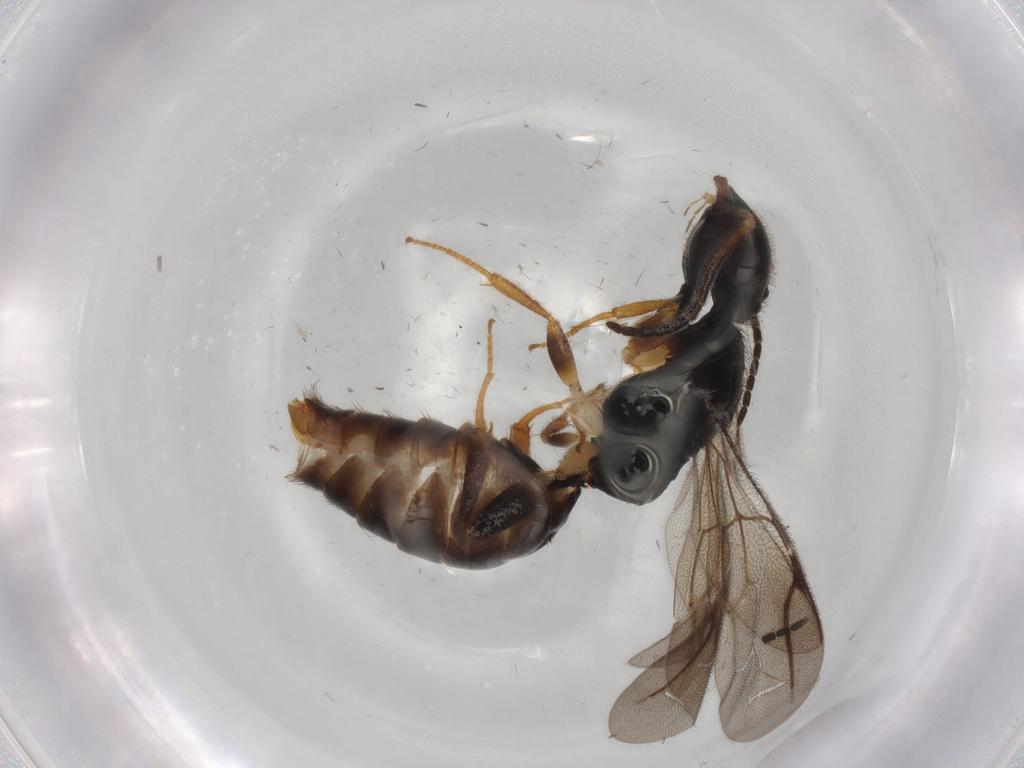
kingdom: Animalia
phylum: Arthropoda
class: Insecta
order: Hymenoptera
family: Bethylidae
